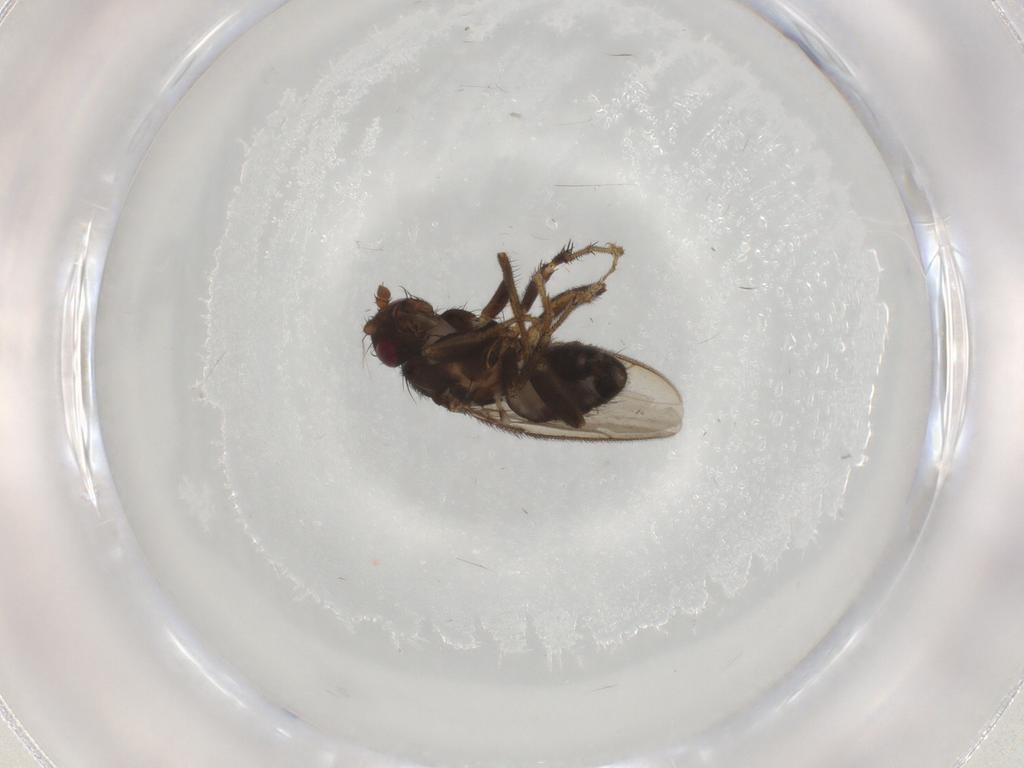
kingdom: Animalia
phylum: Arthropoda
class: Insecta
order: Diptera
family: Sphaeroceridae
